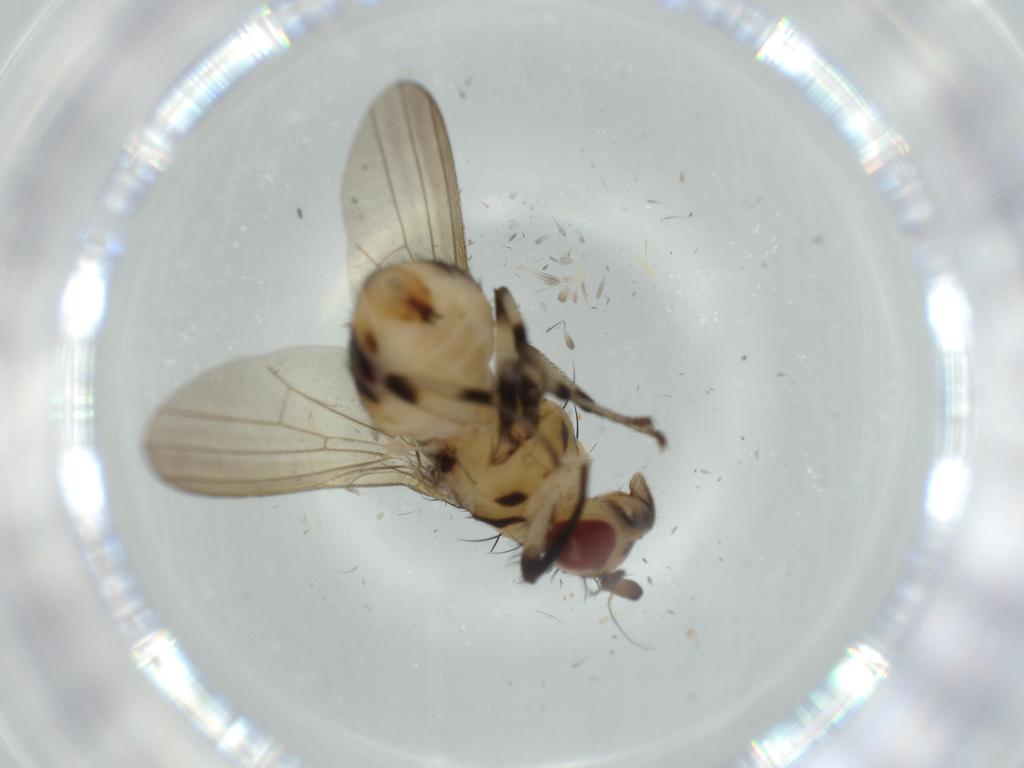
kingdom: Animalia
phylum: Arthropoda
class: Insecta
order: Diptera
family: Lauxaniidae
